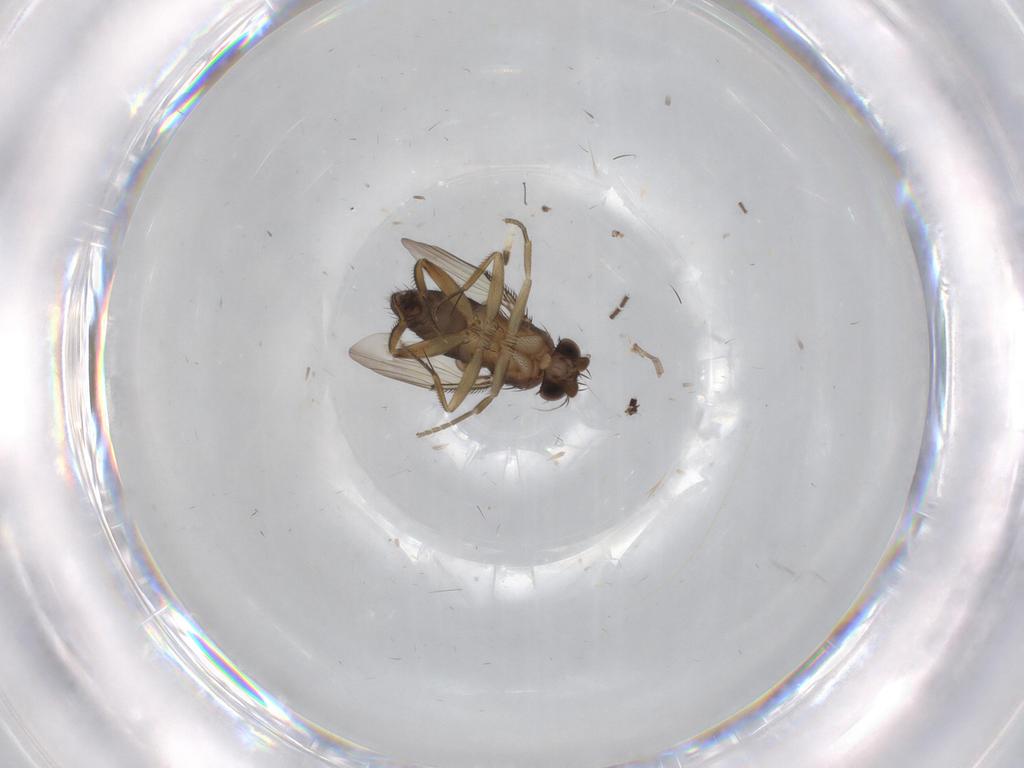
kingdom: Animalia
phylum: Arthropoda
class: Insecta
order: Diptera
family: Phoridae
